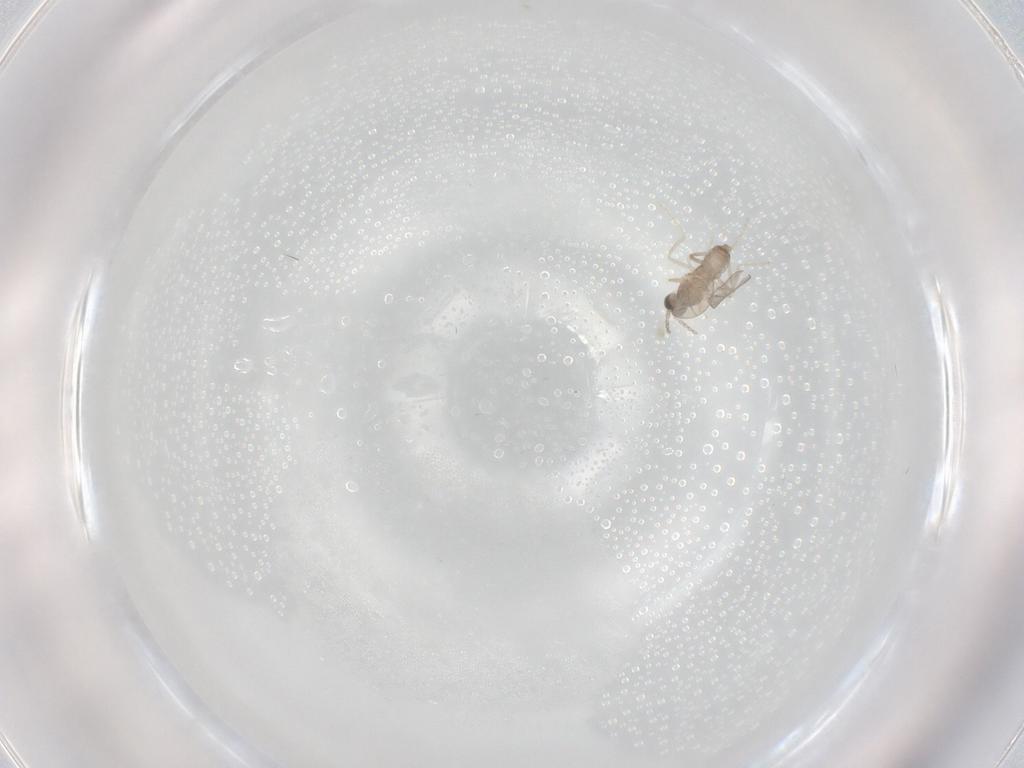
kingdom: Animalia
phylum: Arthropoda
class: Insecta
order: Diptera
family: Cecidomyiidae
